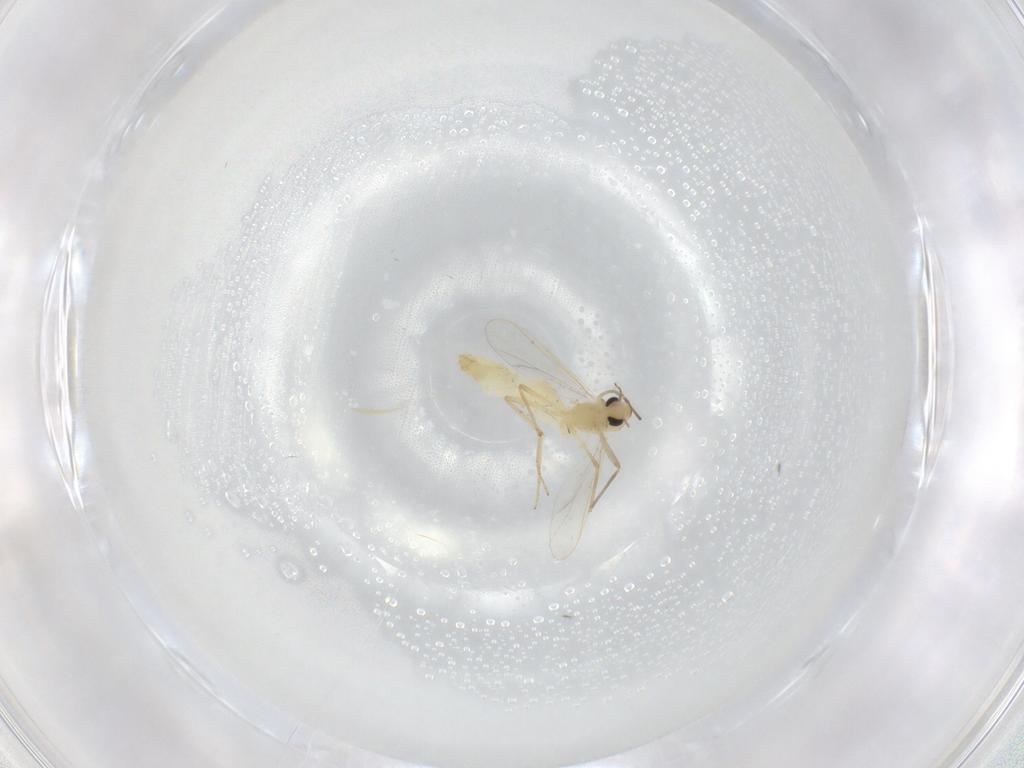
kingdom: Animalia
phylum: Arthropoda
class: Insecta
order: Diptera
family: Chironomidae
